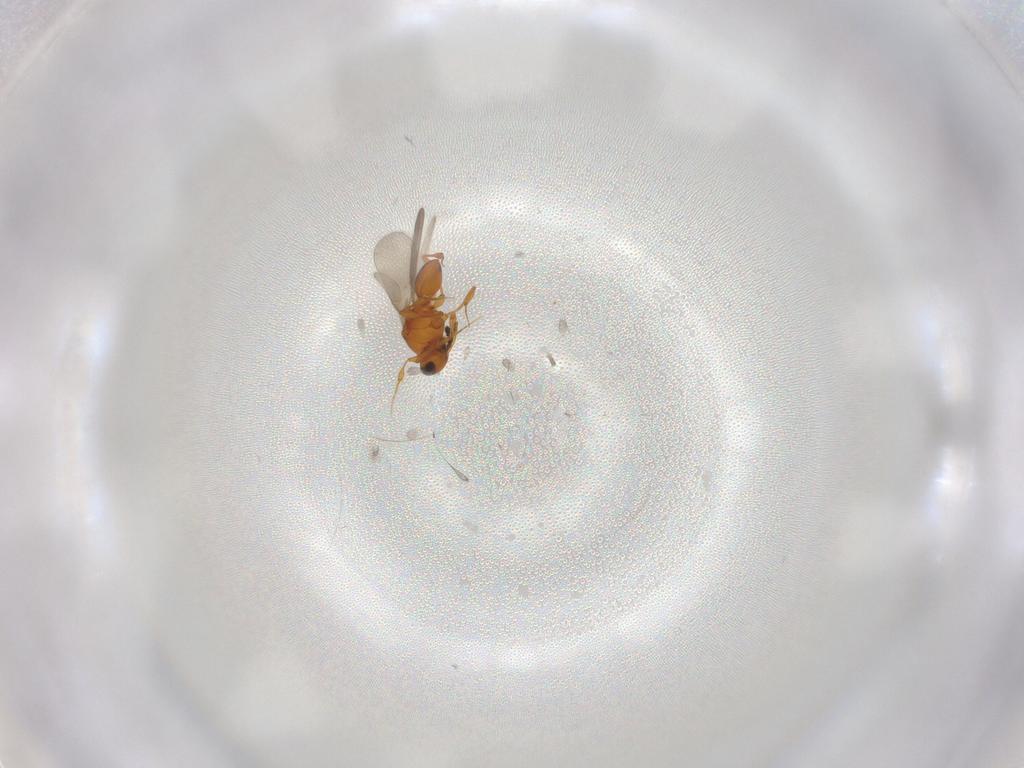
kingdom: Animalia
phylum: Arthropoda
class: Insecta
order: Hymenoptera
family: Platygastridae
